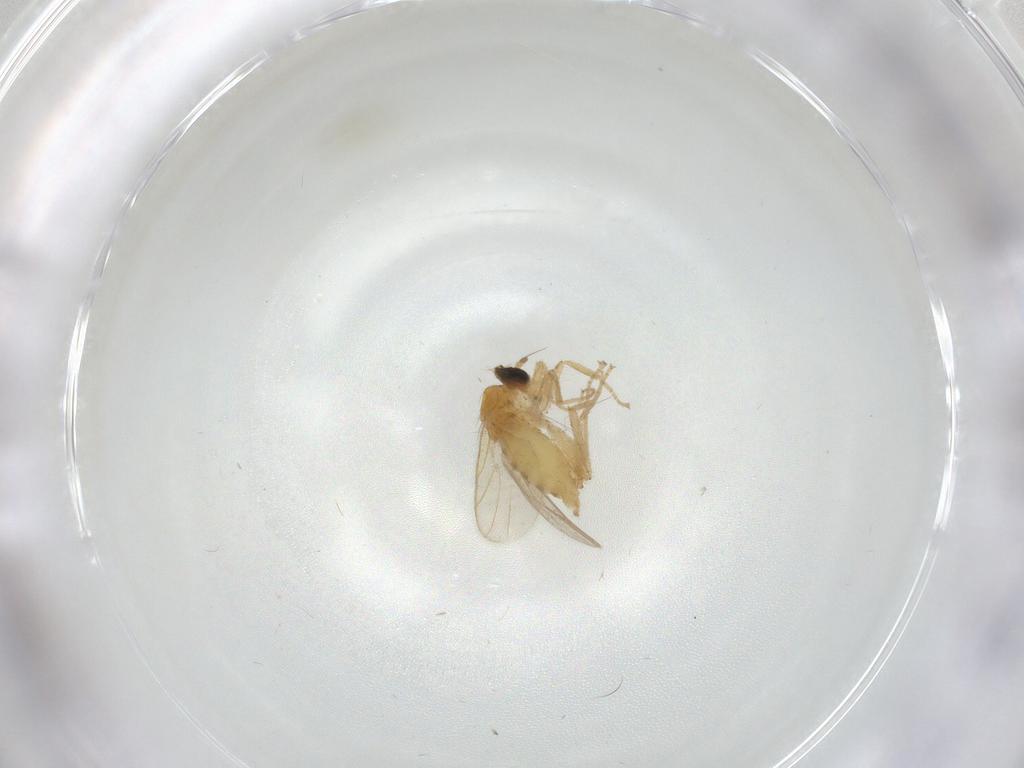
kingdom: Animalia
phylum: Arthropoda
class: Insecta
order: Diptera
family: Hybotidae
